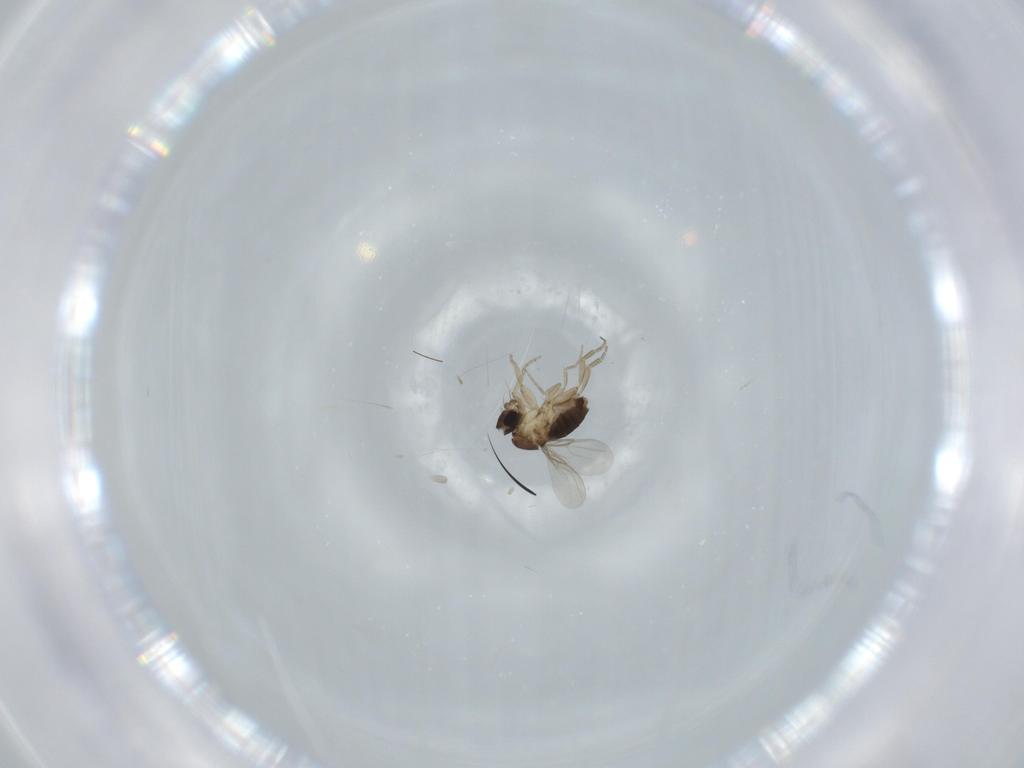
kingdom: Animalia
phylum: Arthropoda
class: Insecta
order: Diptera
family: Phoridae
